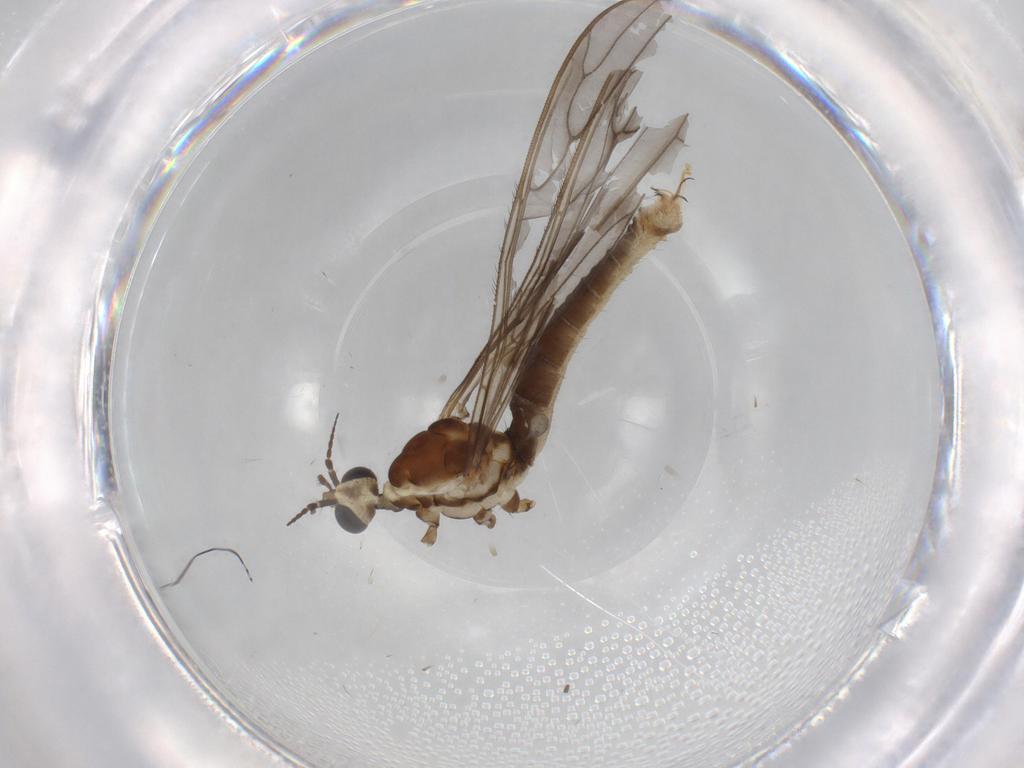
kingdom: Animalia
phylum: Arthropoda
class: Insecta
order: Diptera
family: Cecidomyiidae
